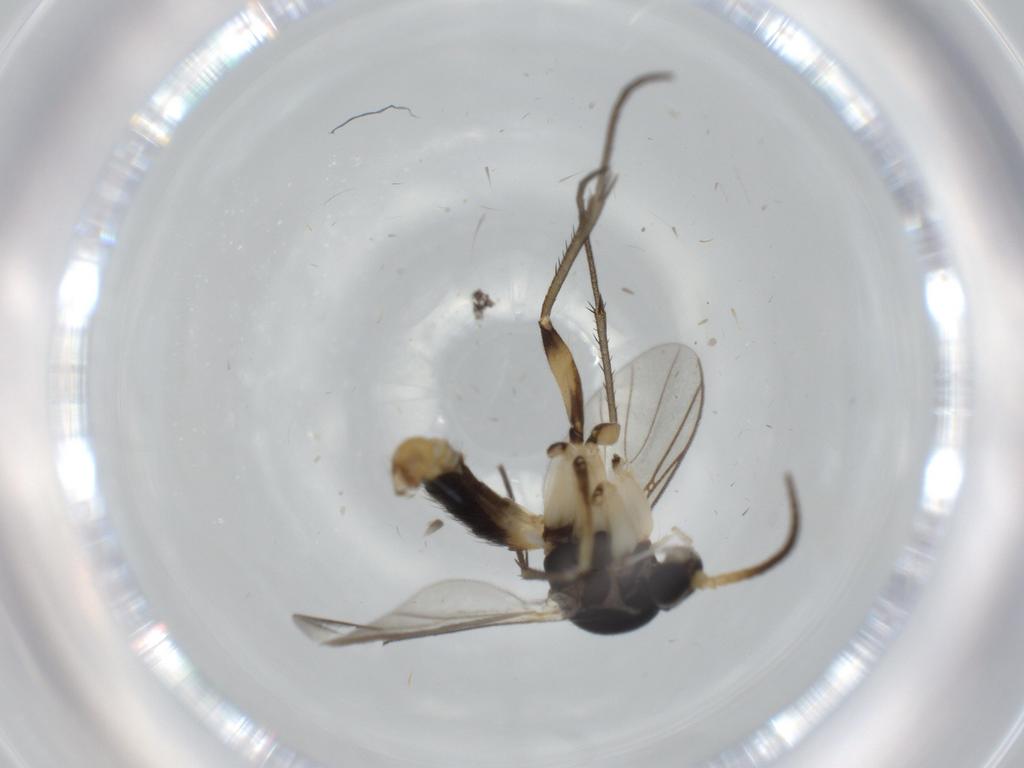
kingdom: Animalia
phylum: Arthropoda
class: Insecta
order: Diptera
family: Mycetophilidae
